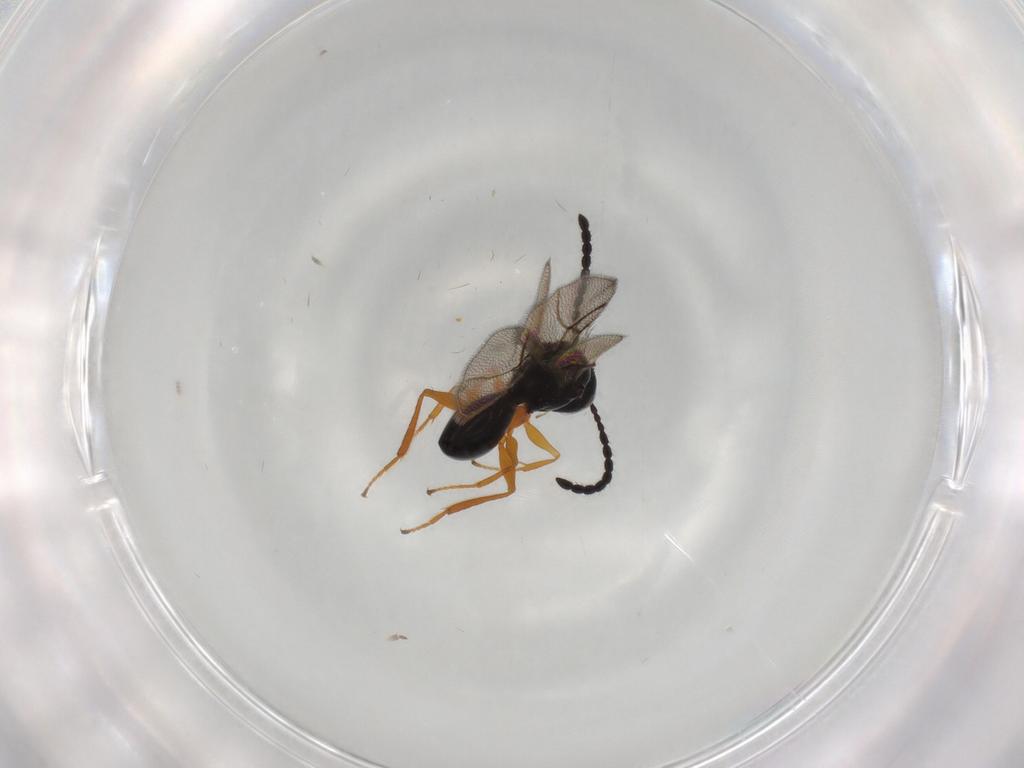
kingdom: Animalia
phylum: Arthropoda
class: Insecta
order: Hymenoptera
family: Figitidae
